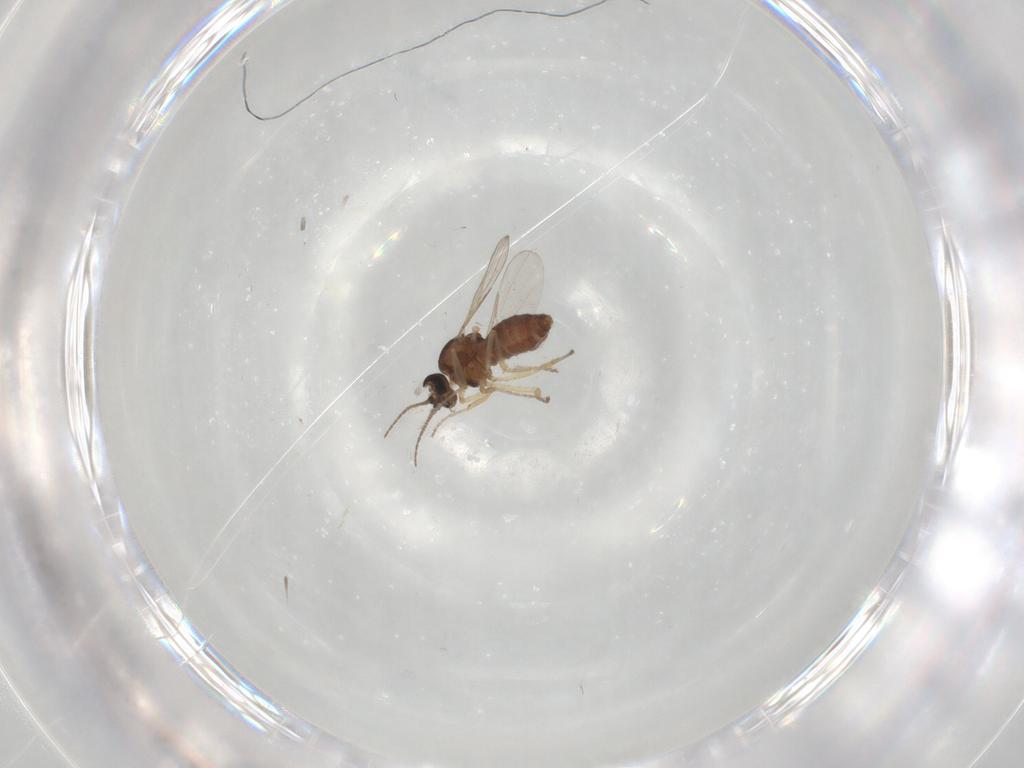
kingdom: Animalia
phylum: Arthropoda
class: Insecta
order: Diptera
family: Ceratopogonidae
